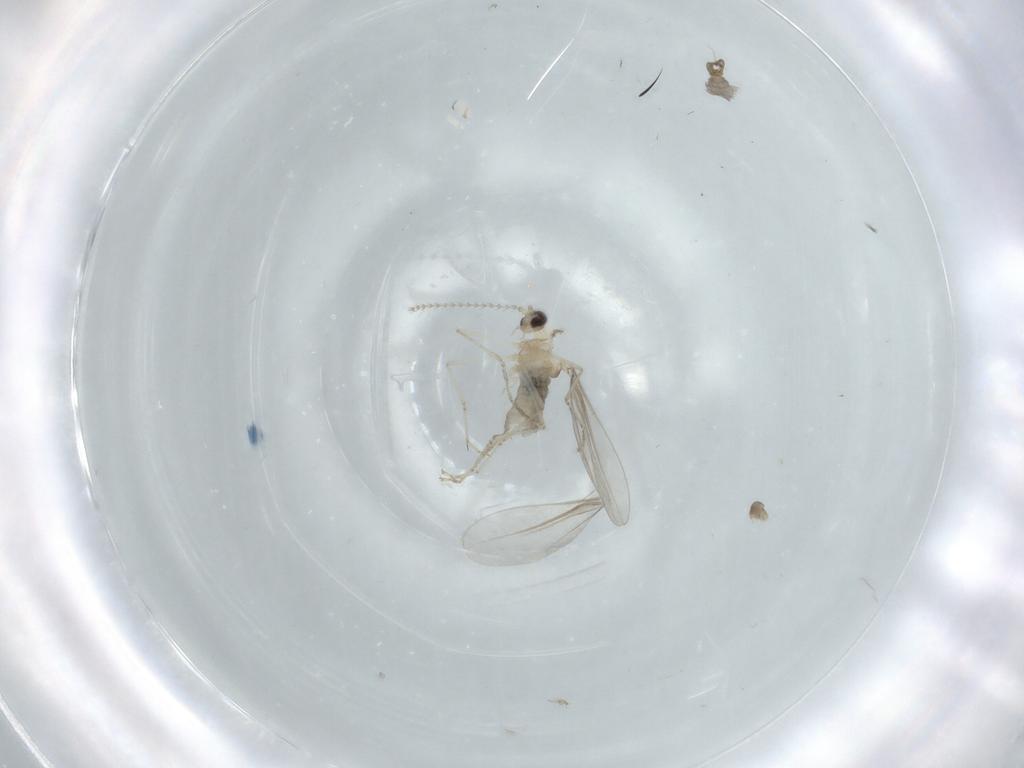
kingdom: Animalia
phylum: Arthropoda
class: Insecta
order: Diptera
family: Cecidomyiidae
